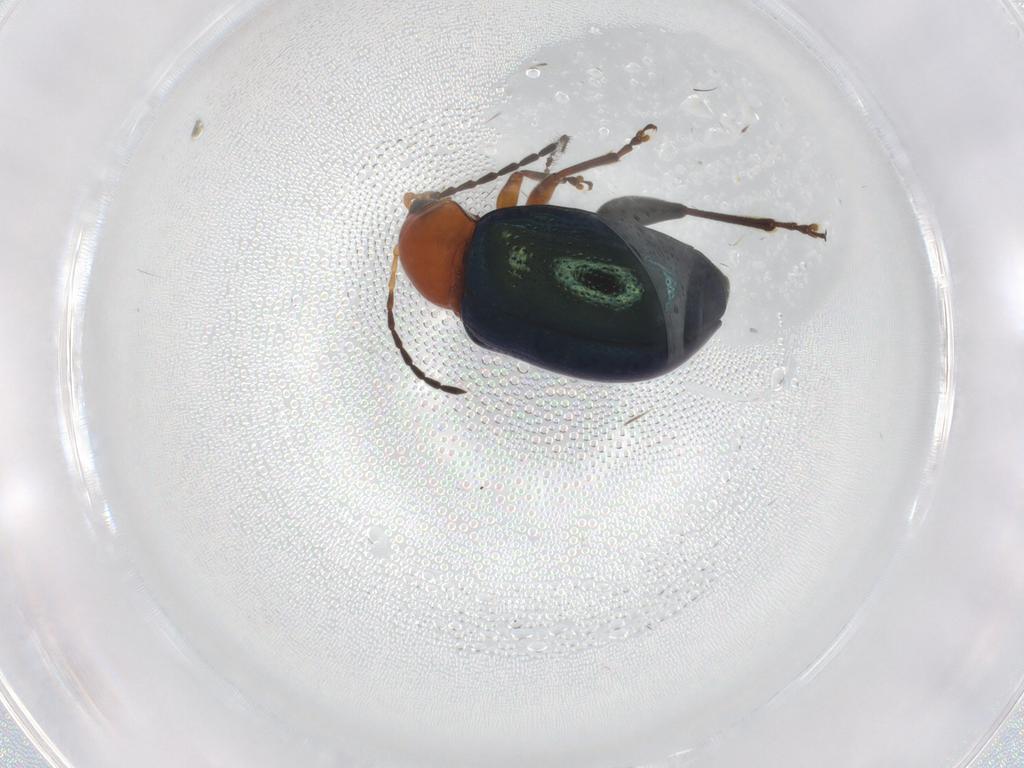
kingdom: Animalia
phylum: Arthropoda
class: Insecta
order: Coleoptera
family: Chrysomelidae
